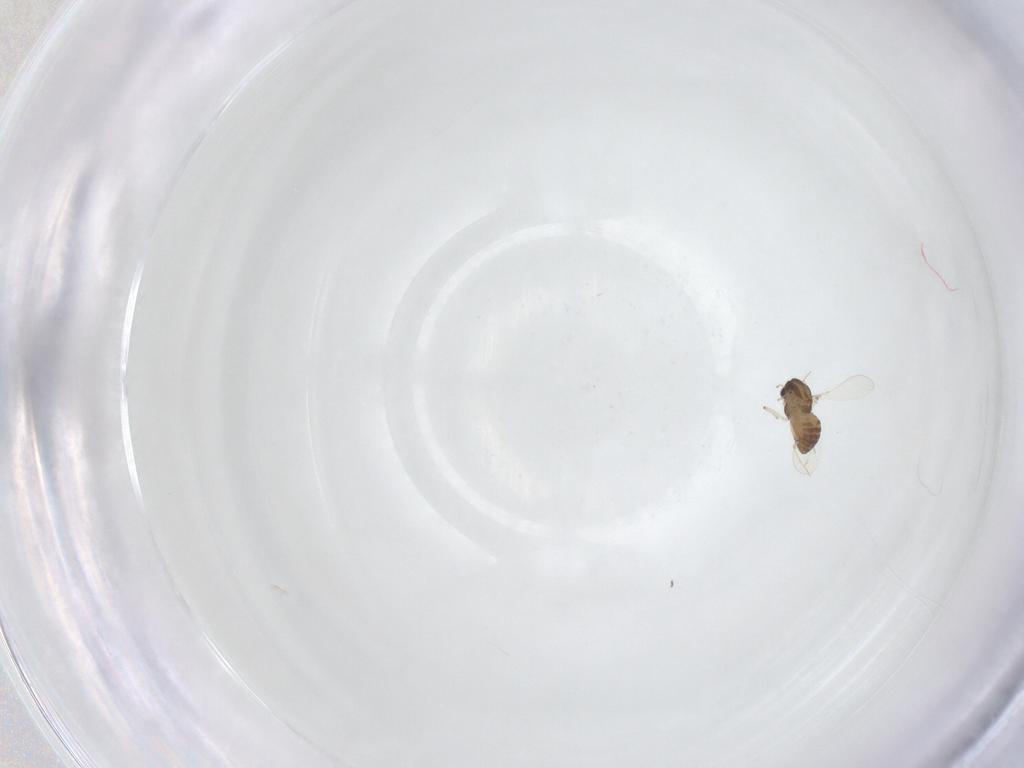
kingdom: Animalia
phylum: Arthropoda
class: Insecta
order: Diptera
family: Chironomidae
